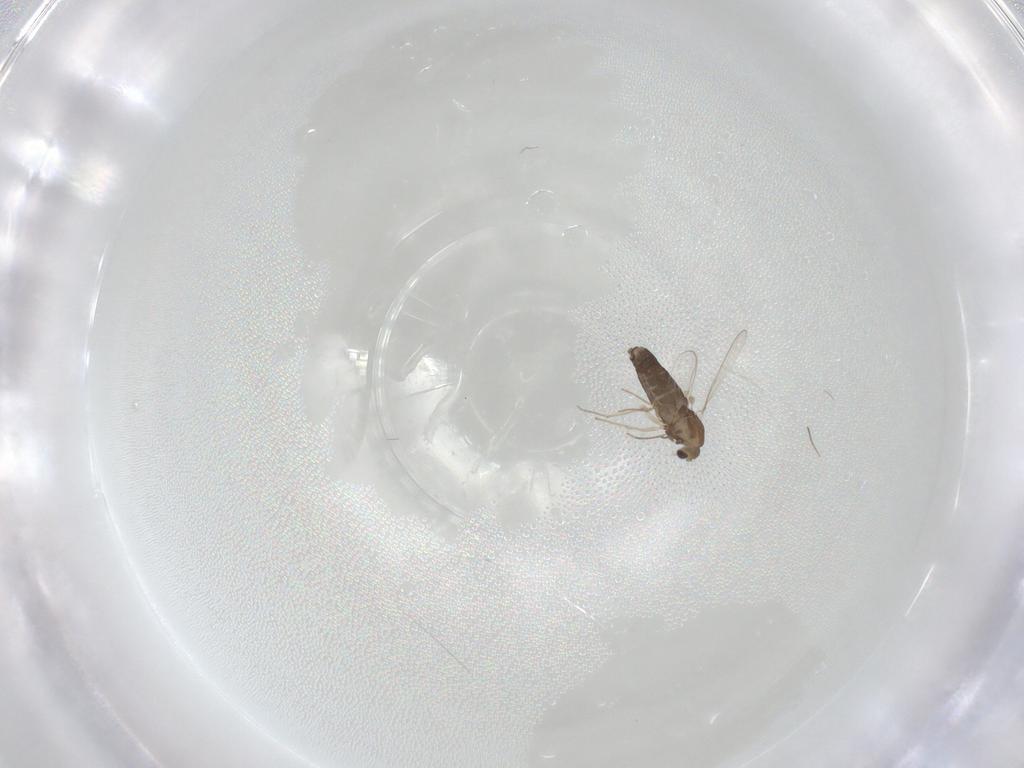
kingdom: Animalia
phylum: Arthropoda
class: Insecta
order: Diptera
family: Chironomidae
